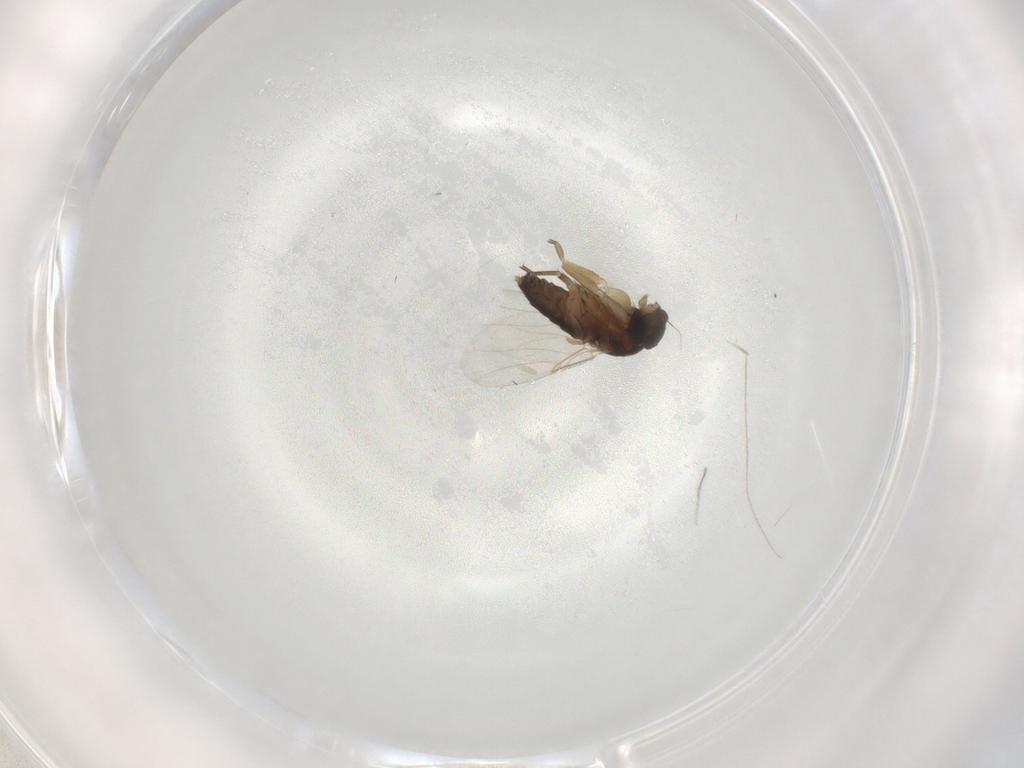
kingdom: Animalia
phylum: Arthropoda
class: Insecta
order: Diptera
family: Phoridae
